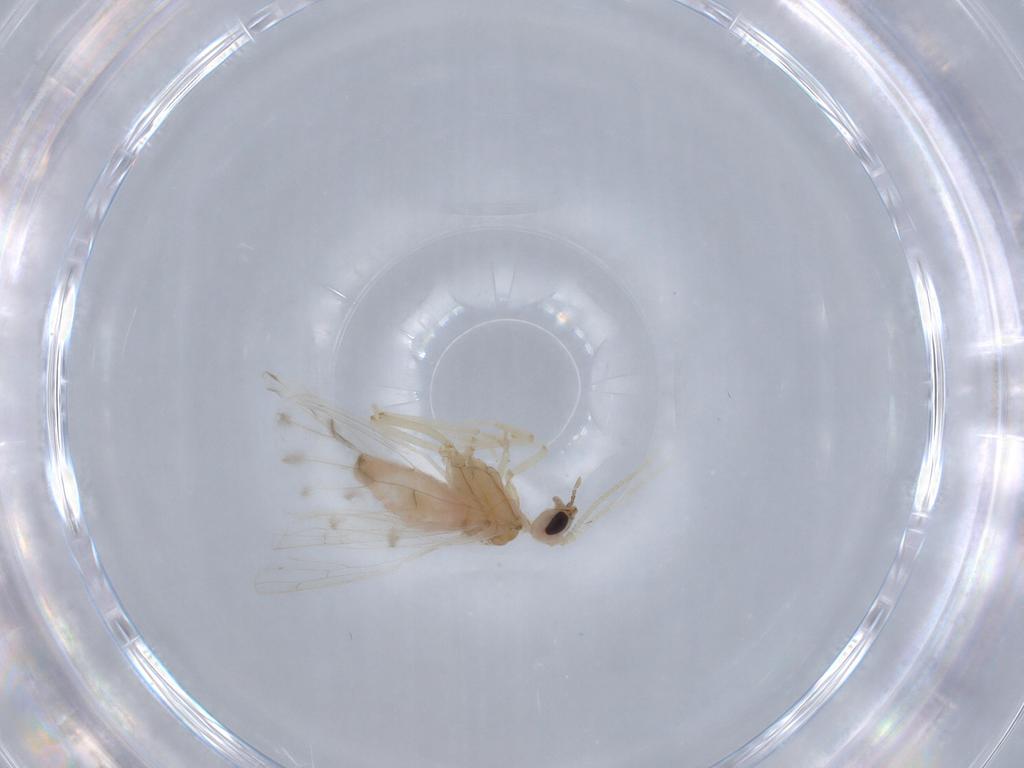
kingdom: Animalia
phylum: Arthropoda
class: Insecta
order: Neuroptera
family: Coniopterygidae
